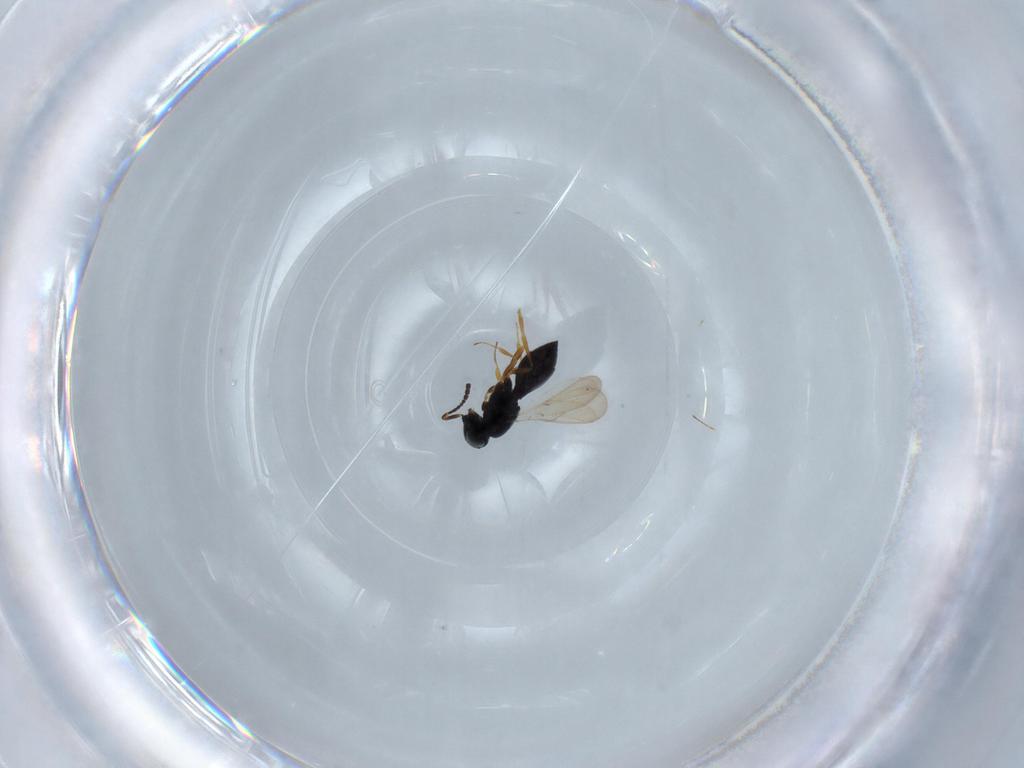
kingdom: Animalia
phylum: Arthropoda
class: Insecta
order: Hymenoptera
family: Scelionidae
